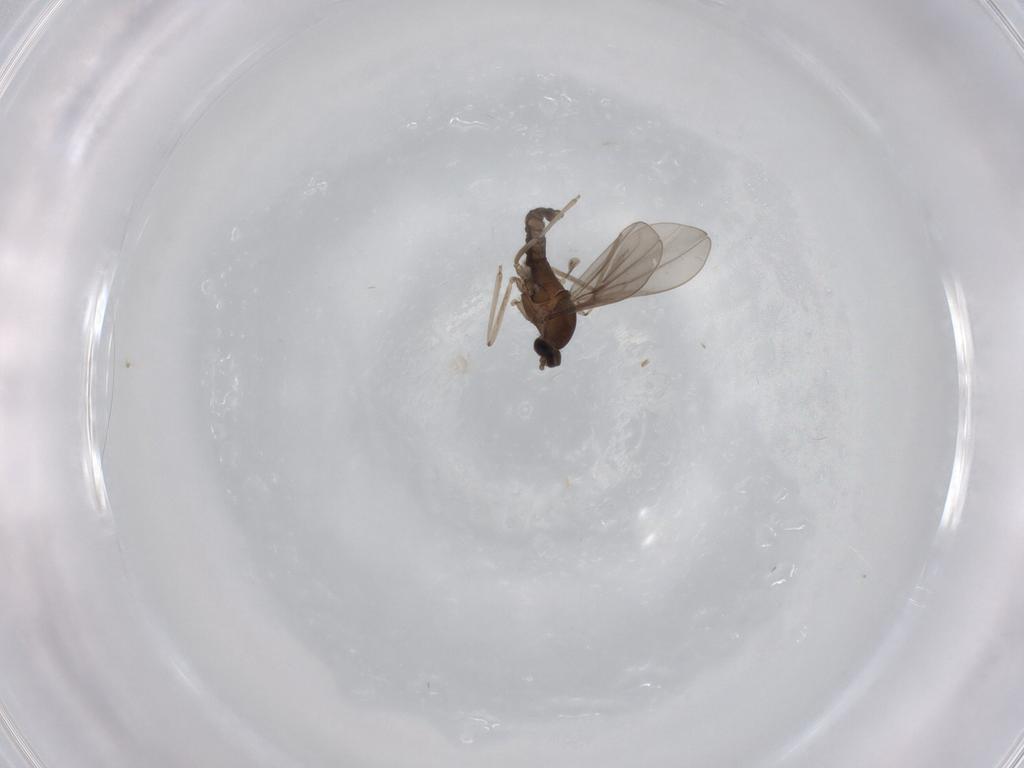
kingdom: Animalia
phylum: Arthropoda
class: Insecta
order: Diptera
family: Cecidomyiidae
